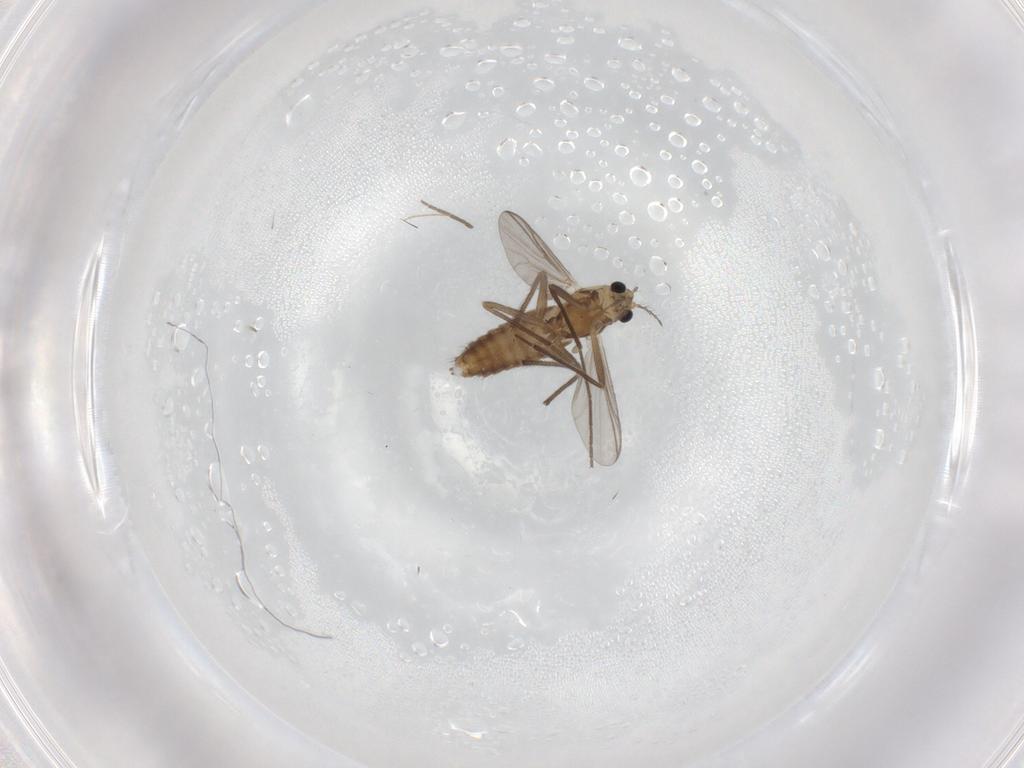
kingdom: Animalia
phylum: Arthropoda
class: Insecta
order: Diptera
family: Chironomidae
